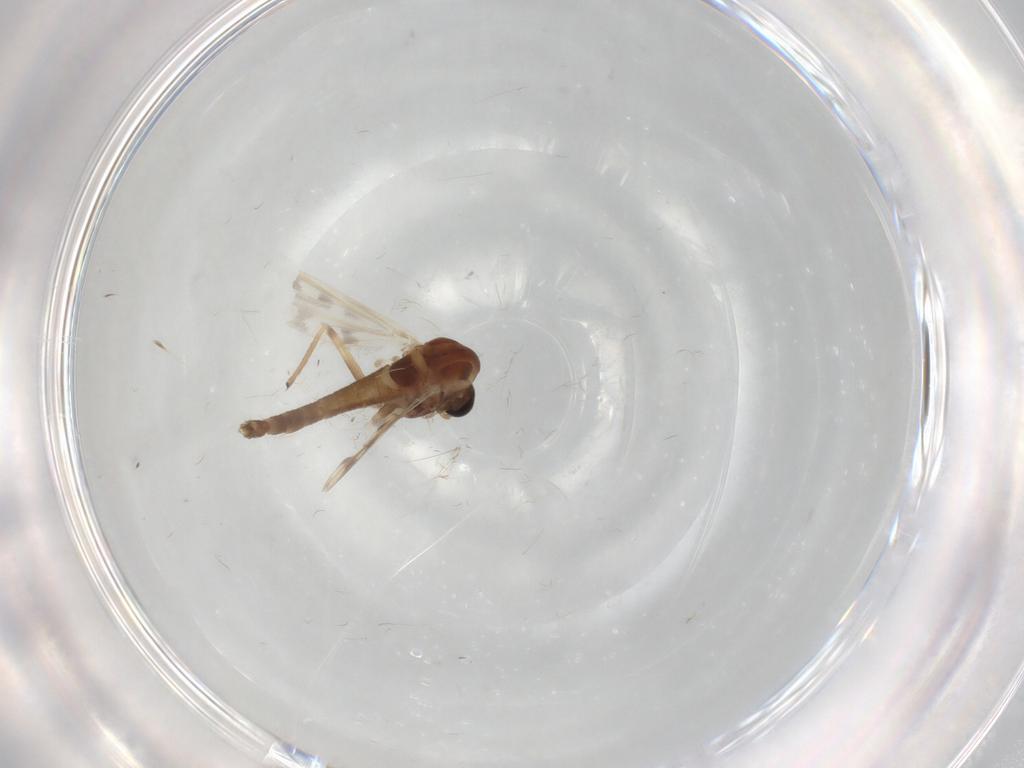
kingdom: Animalia
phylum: Arthropoda
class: Insecta
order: Diptera
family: Chironomidae
